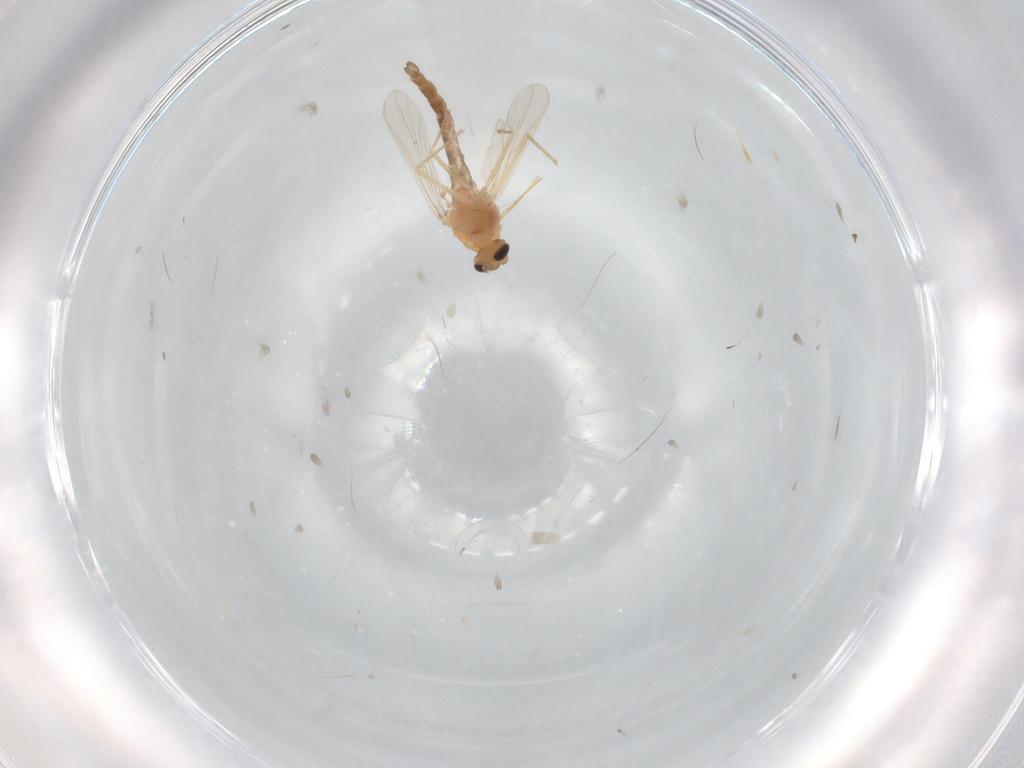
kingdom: Animalia
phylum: Arthropoda
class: Insecta
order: Diptera
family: Chironomidae
